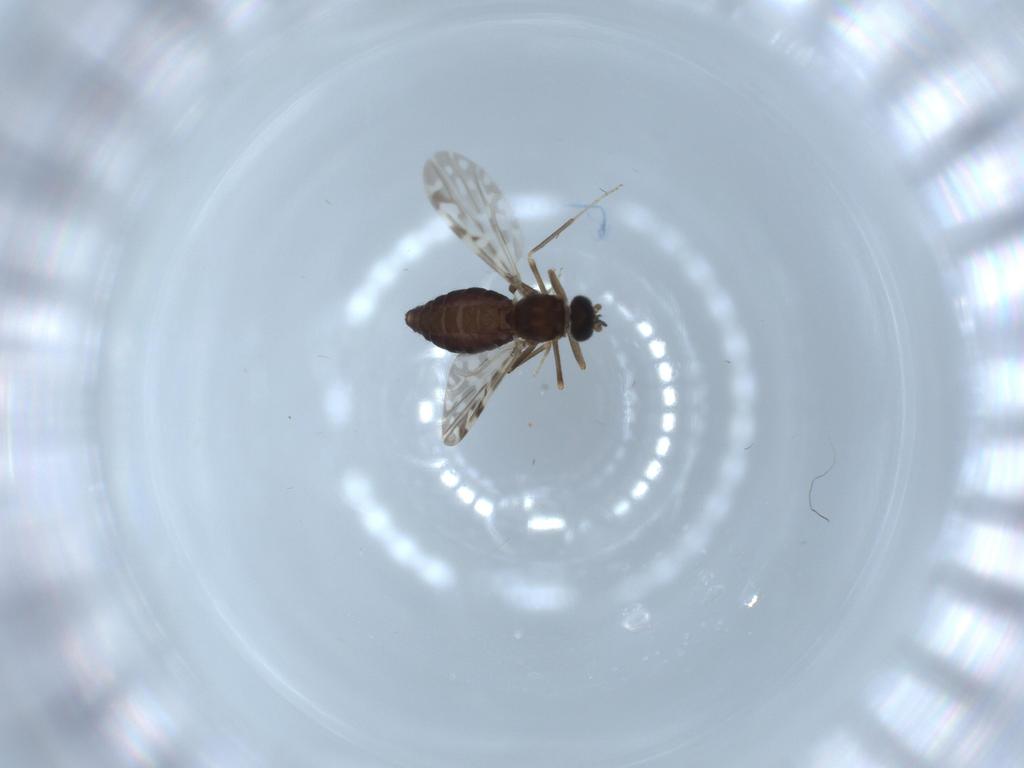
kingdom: Animalia
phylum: Arthropoda
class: Insecta
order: Diptera
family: Ceratopogonidae
